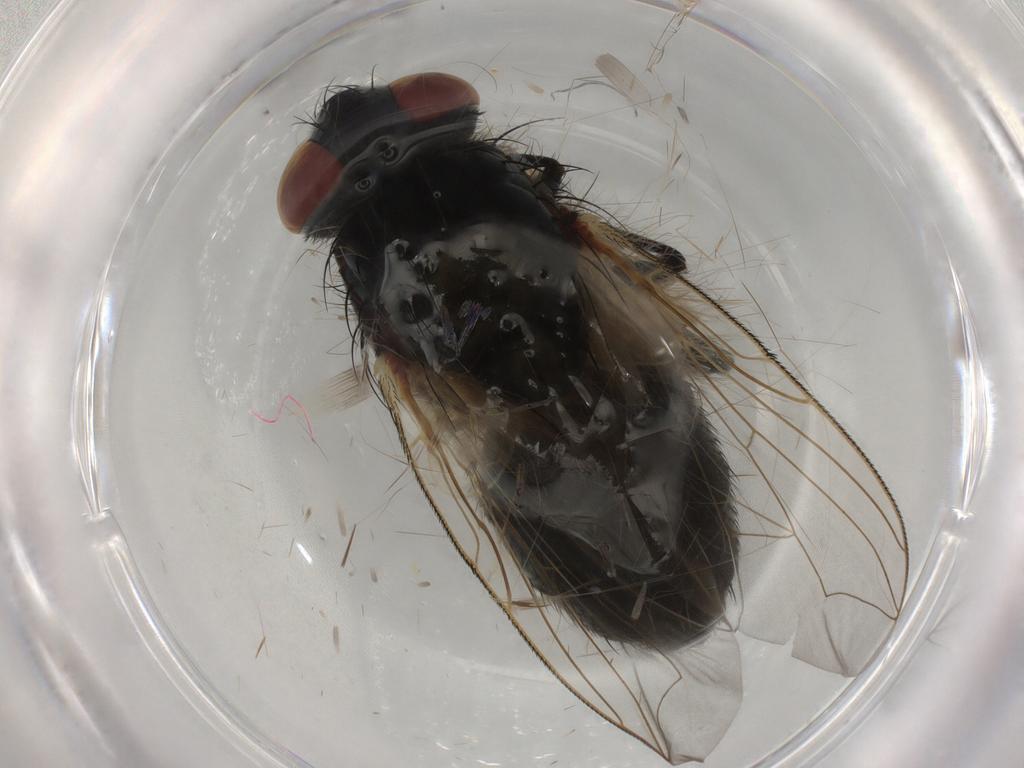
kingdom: Animalia
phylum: Arthropoda
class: Insecta
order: Diptera
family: Sarcophagidae
